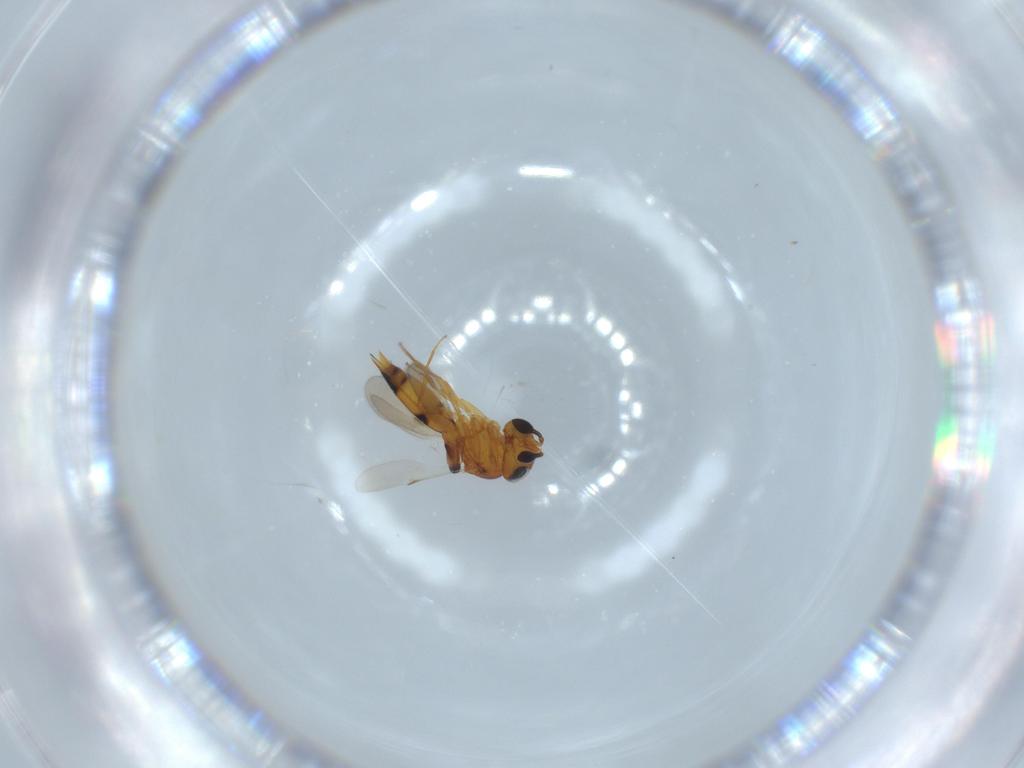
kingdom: Animalia
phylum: Arthropoda
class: Insecta
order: Hymenoptera
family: Scelionidae
